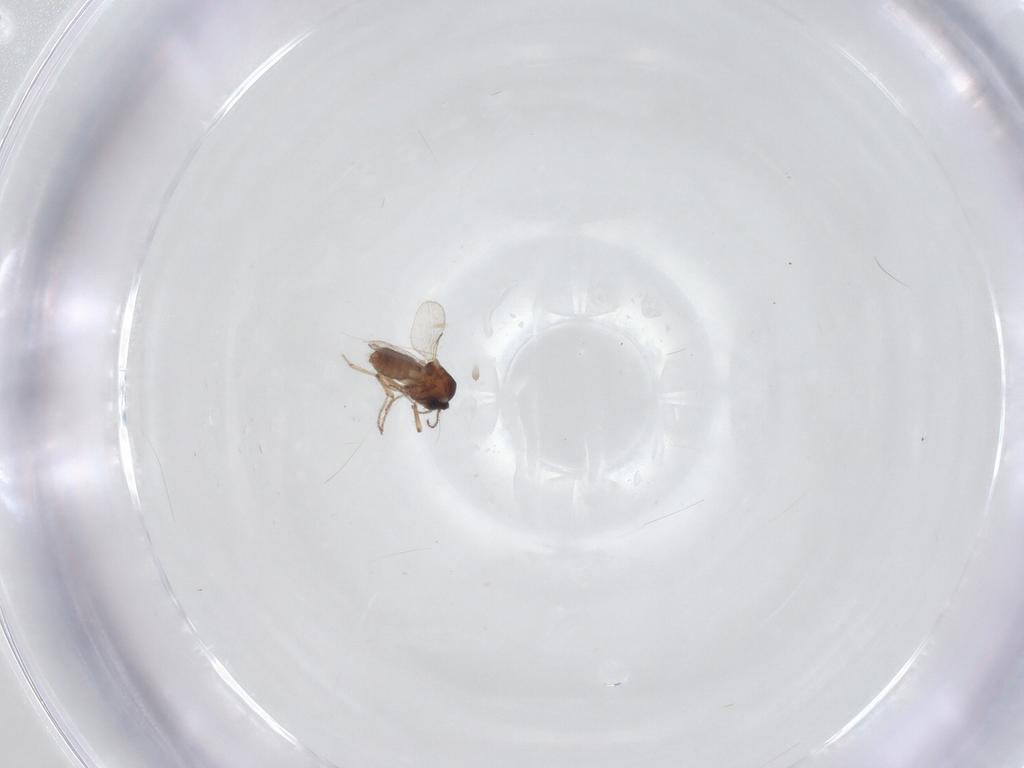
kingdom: Animalia
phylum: Arthropoda
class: Insecta
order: Diptera
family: Ceratopogonidae
